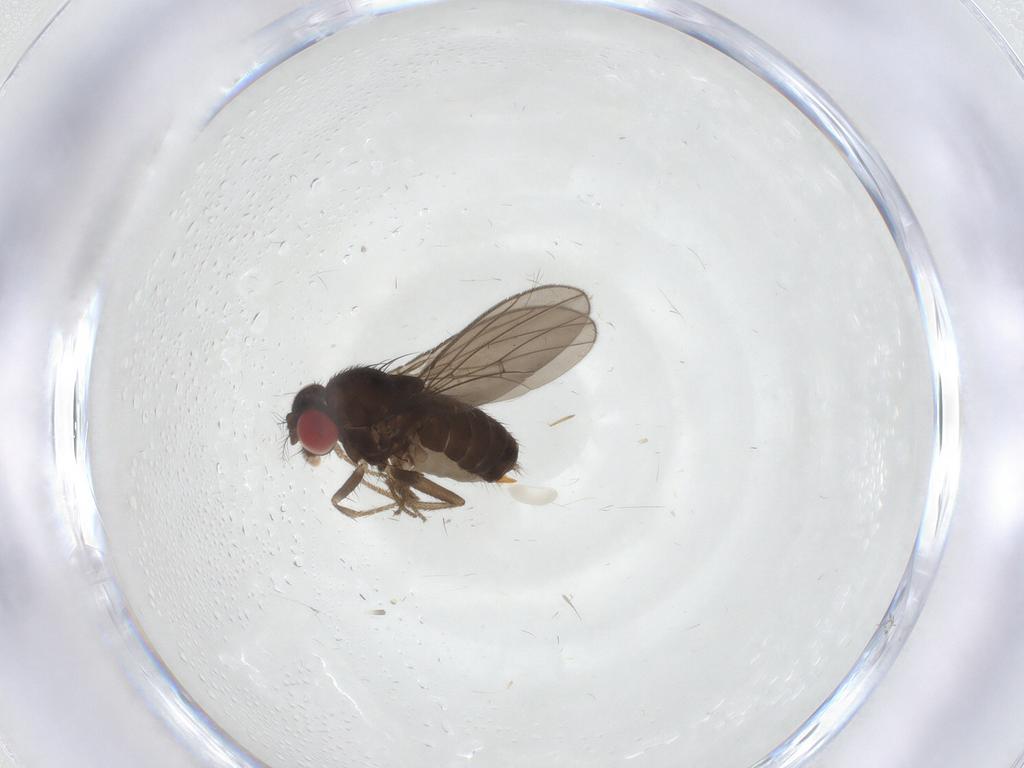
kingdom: Animalia
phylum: Arthropoda
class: Insecta
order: Diptera
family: Drosophilidae
